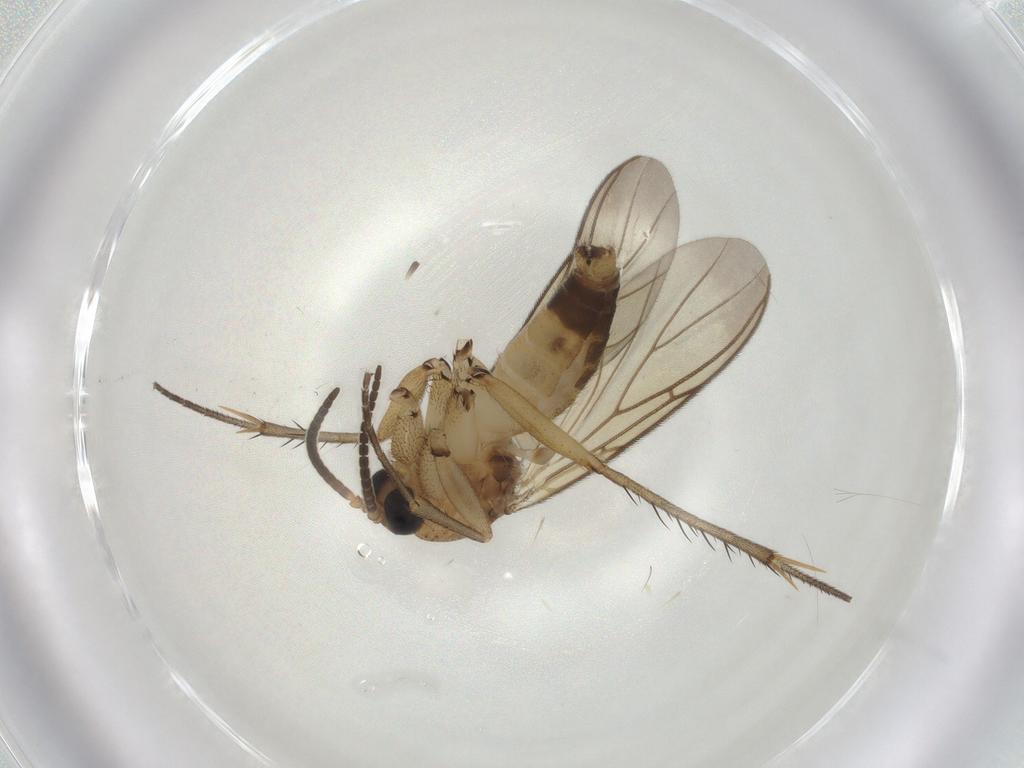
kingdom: Animalia
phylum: Arthropoda
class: Insecta
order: Diptera
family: Mycetophilidae
